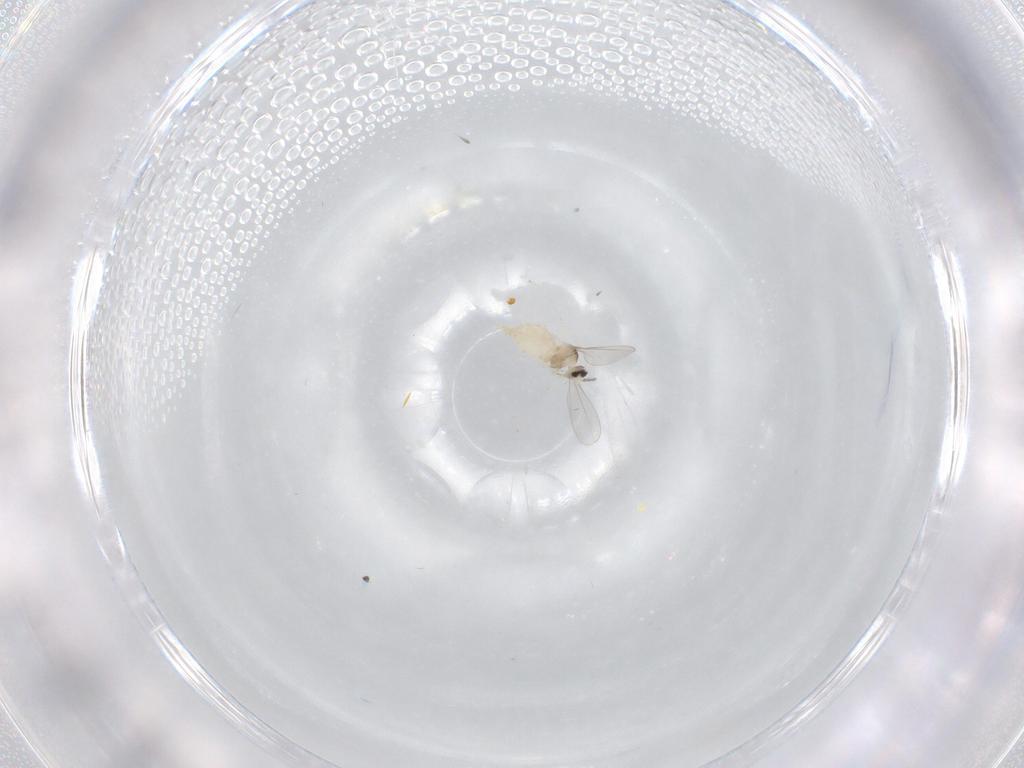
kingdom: Animalia
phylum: Arthropoda
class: Insecta
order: Diptera
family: Cecidomyiidae
